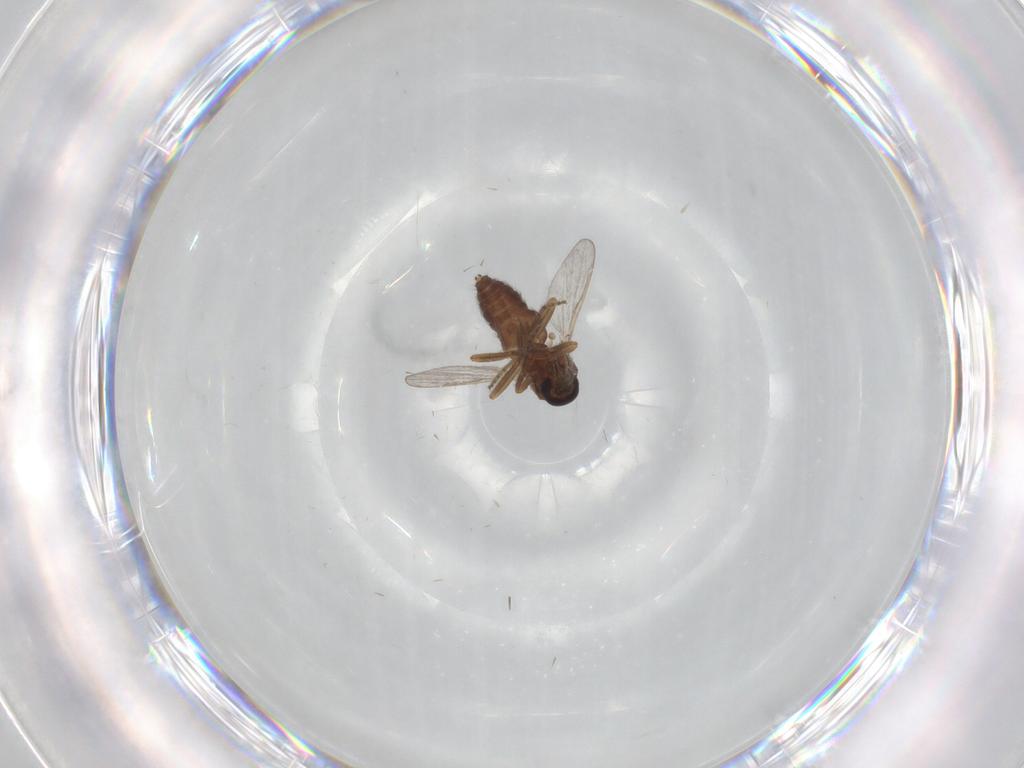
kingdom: Animalia
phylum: Arthropoda
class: Insecta
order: Diptera
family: Ceratopogonidae
